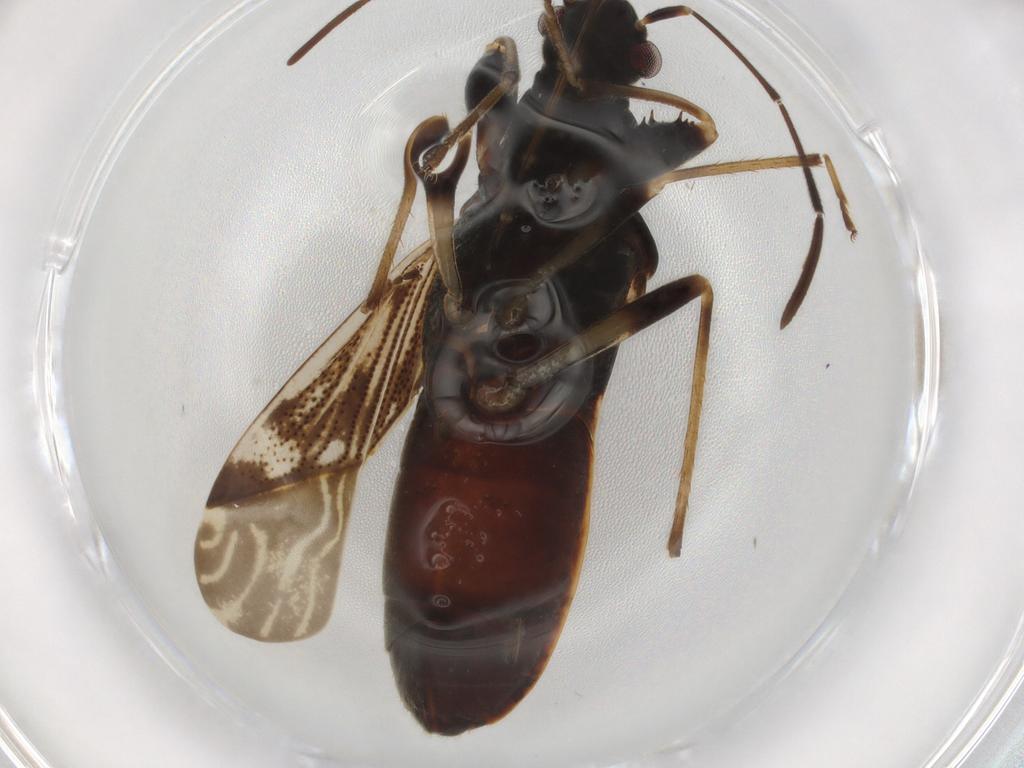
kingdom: Animalia
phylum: Arthropoda
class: Insecta
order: Hemiptera
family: Rhyparochromidae
